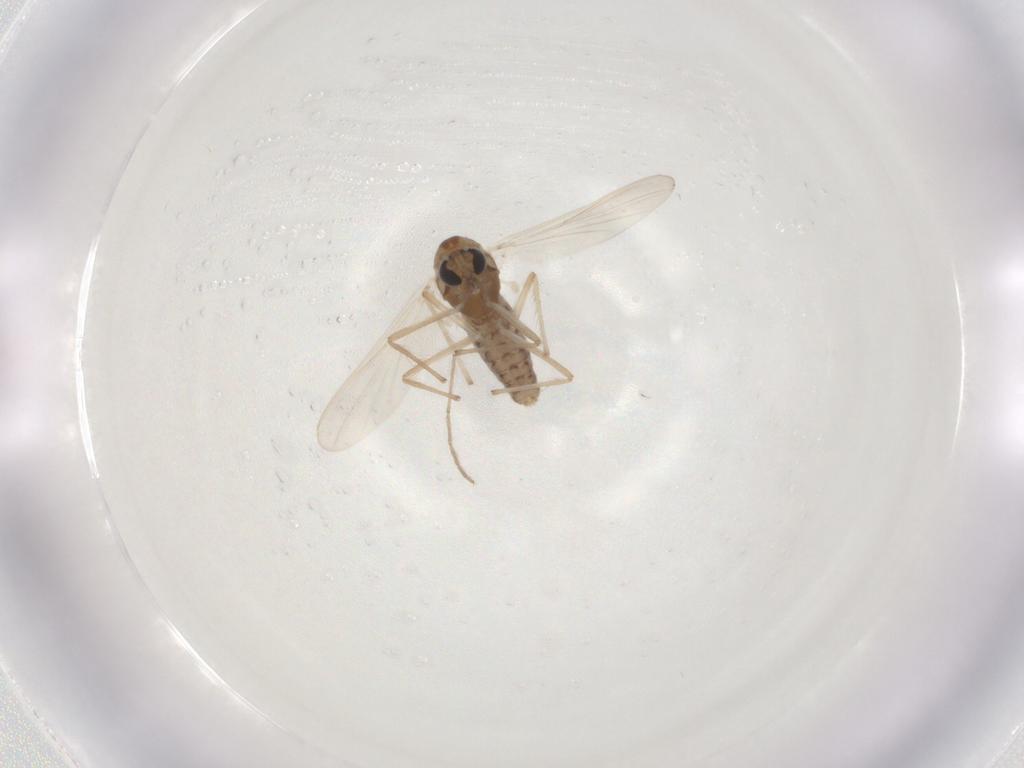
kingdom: Animalia
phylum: Arthropoda
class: Insecta
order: Diptera
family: Chironomidae
